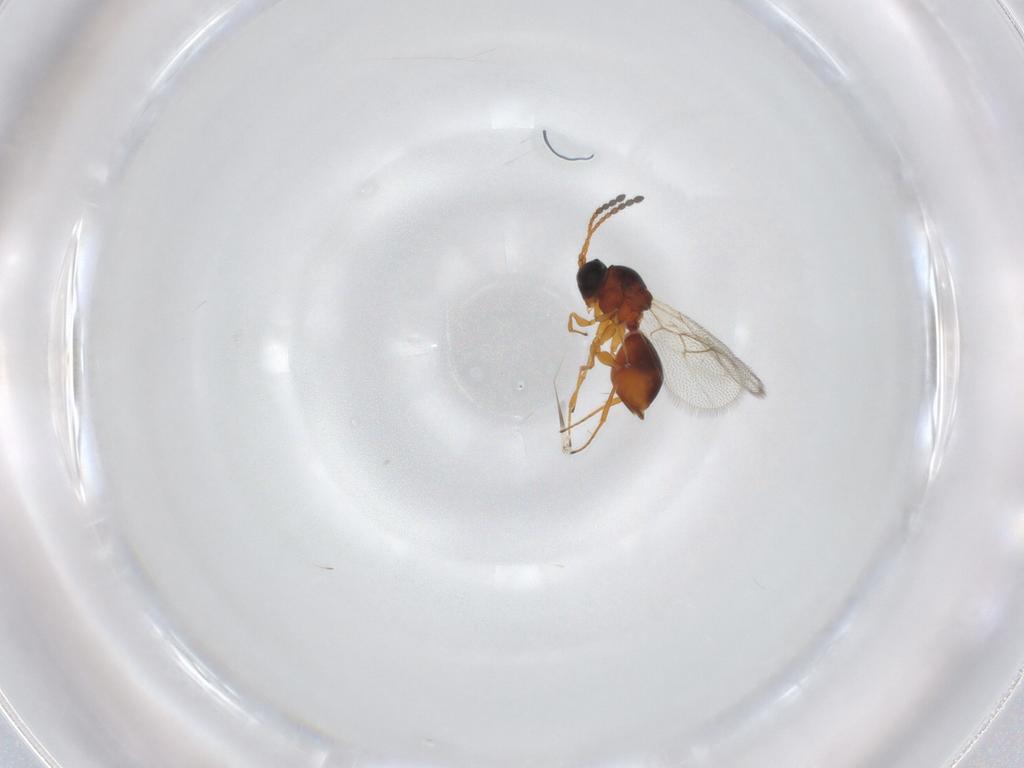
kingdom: Animalia
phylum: Arthropoda
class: Insecta
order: Hymenoptera
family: Figitidae
